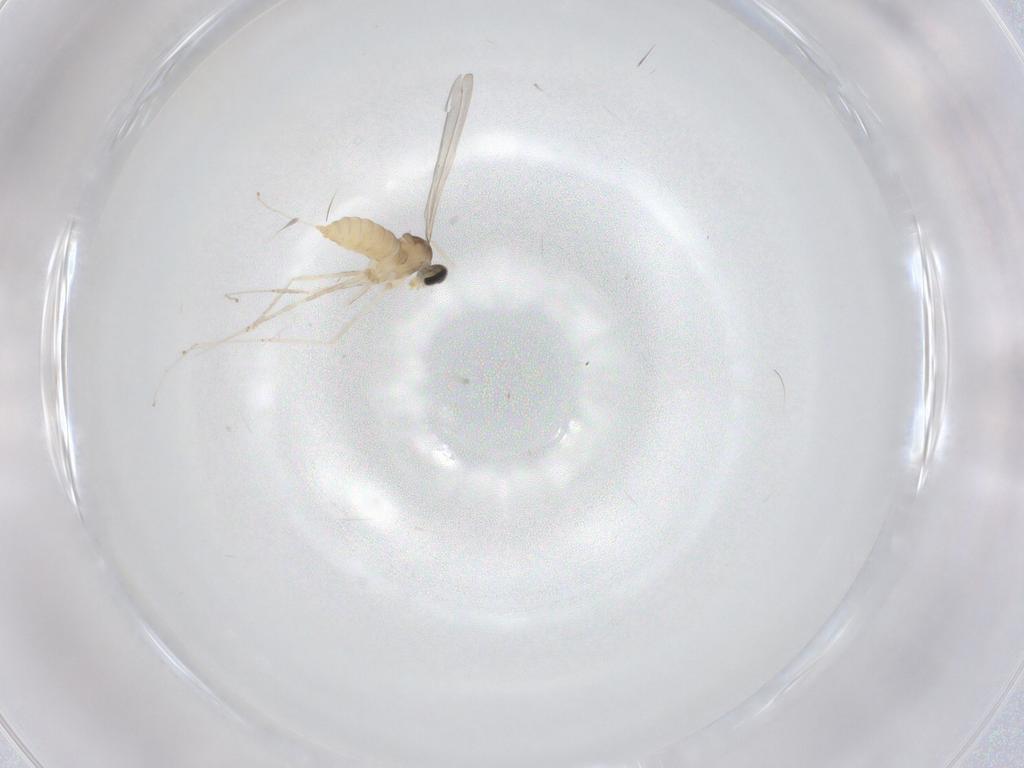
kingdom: Animalia
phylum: Arthropoda
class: Insecta
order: Diptera
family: Cecidomyiidae
